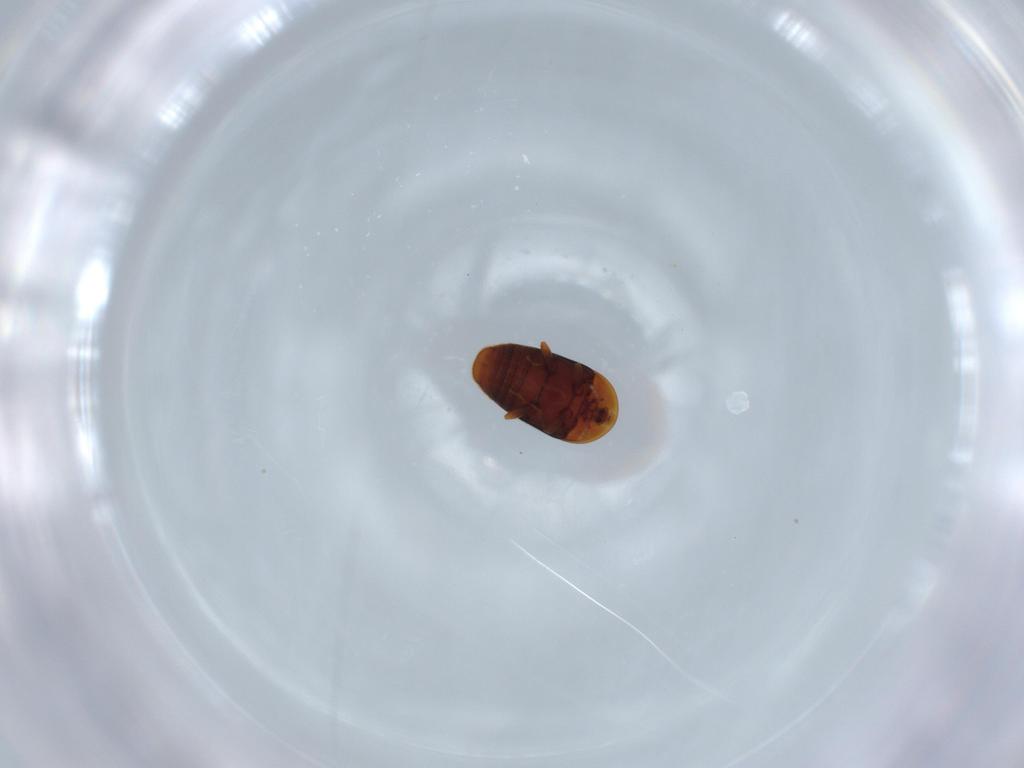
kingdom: Animalia
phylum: Arthropoda
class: Insecta
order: Coleoptera
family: Corylophidae
